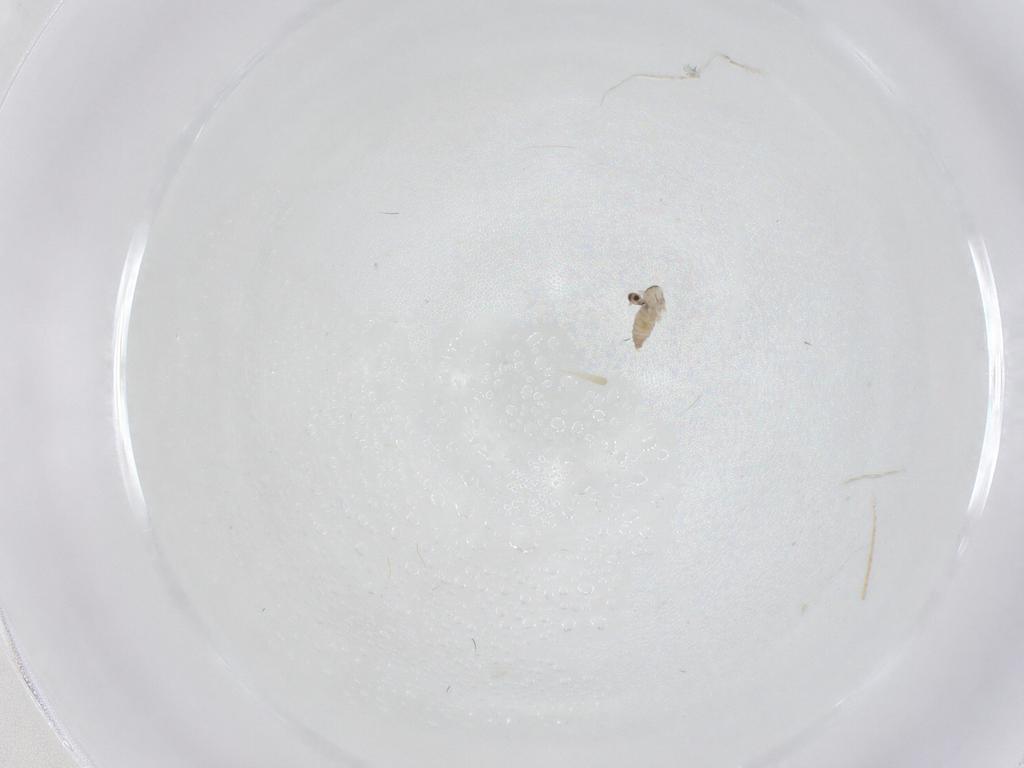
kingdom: Animalia
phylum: Arthropoda
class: Insecta
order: Diptera
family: Cecidomyiidae
